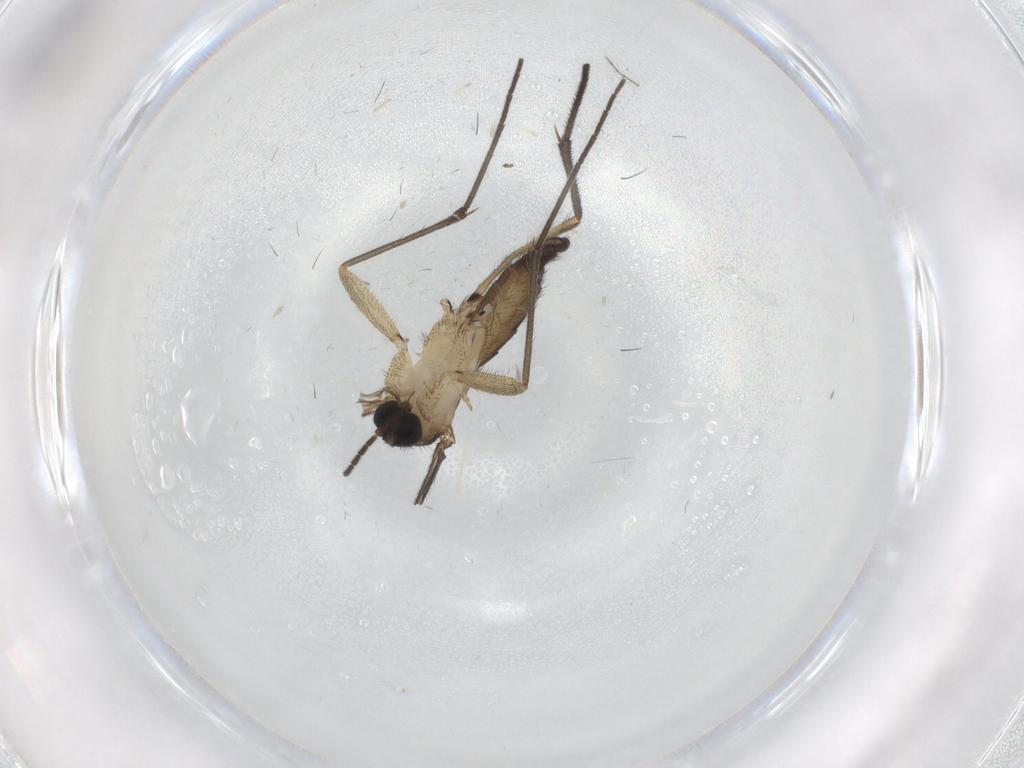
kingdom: Animalia
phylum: Arthropoda
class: Insecta
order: Diptera
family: Sciaridae
